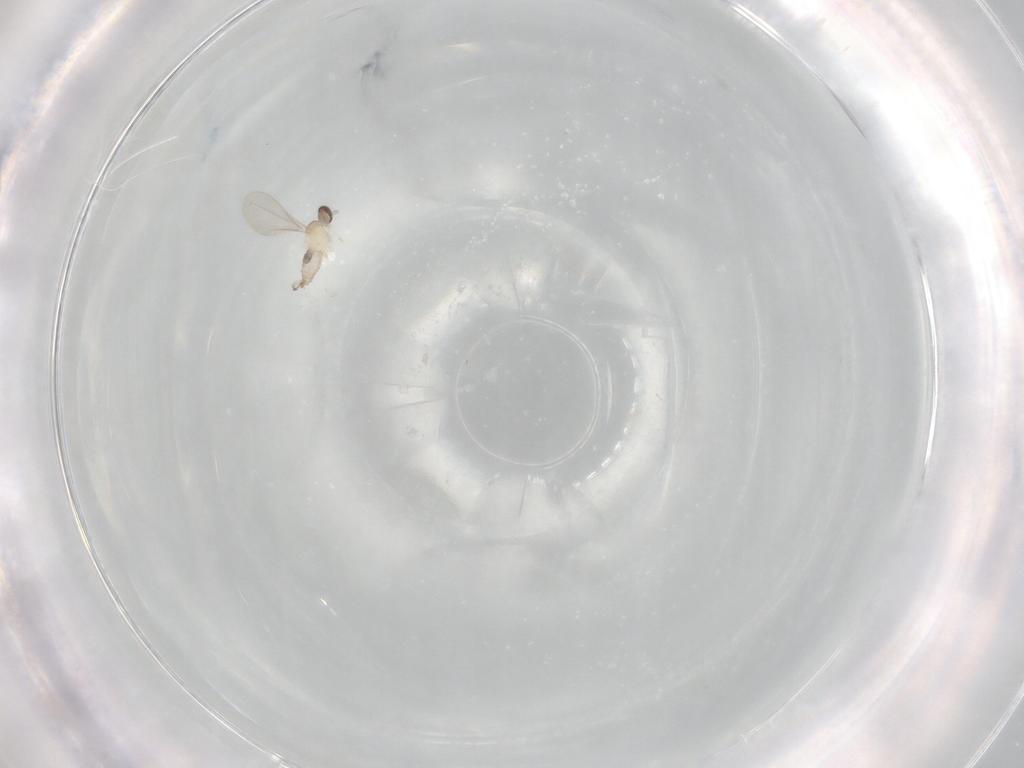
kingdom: Animalia
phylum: Arthropoda
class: Insecta
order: Diptera
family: Cecidomyiidae
